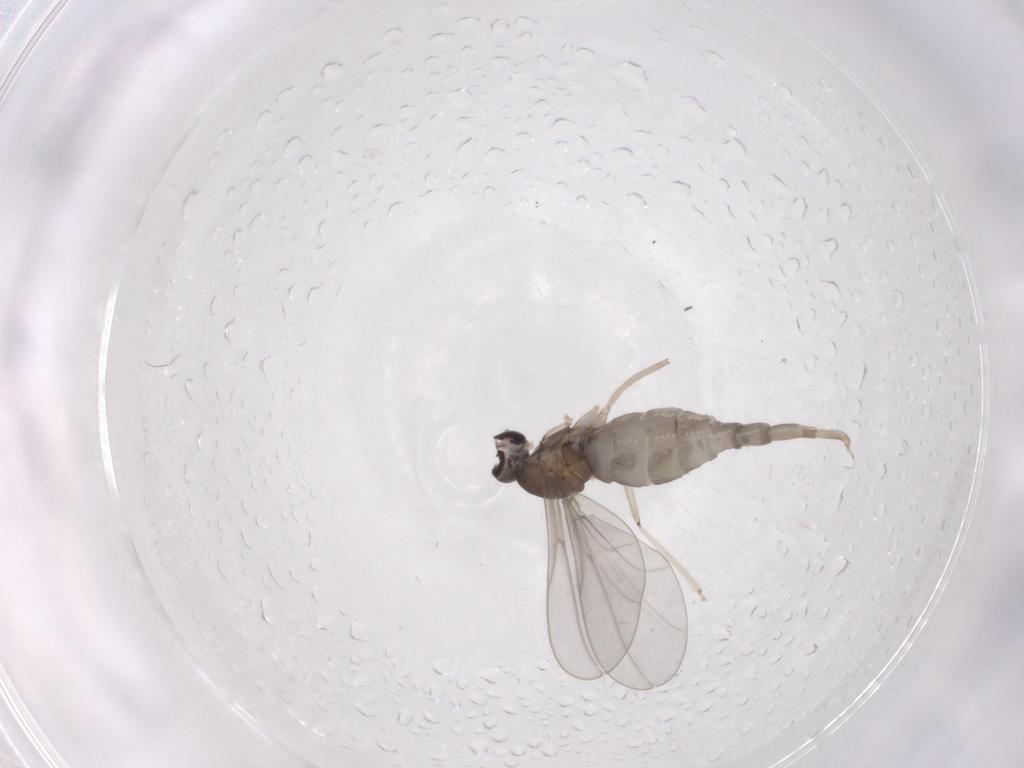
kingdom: Animalia
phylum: Arthropoda
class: Insecta
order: Diptera
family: Cecidomyiidae
